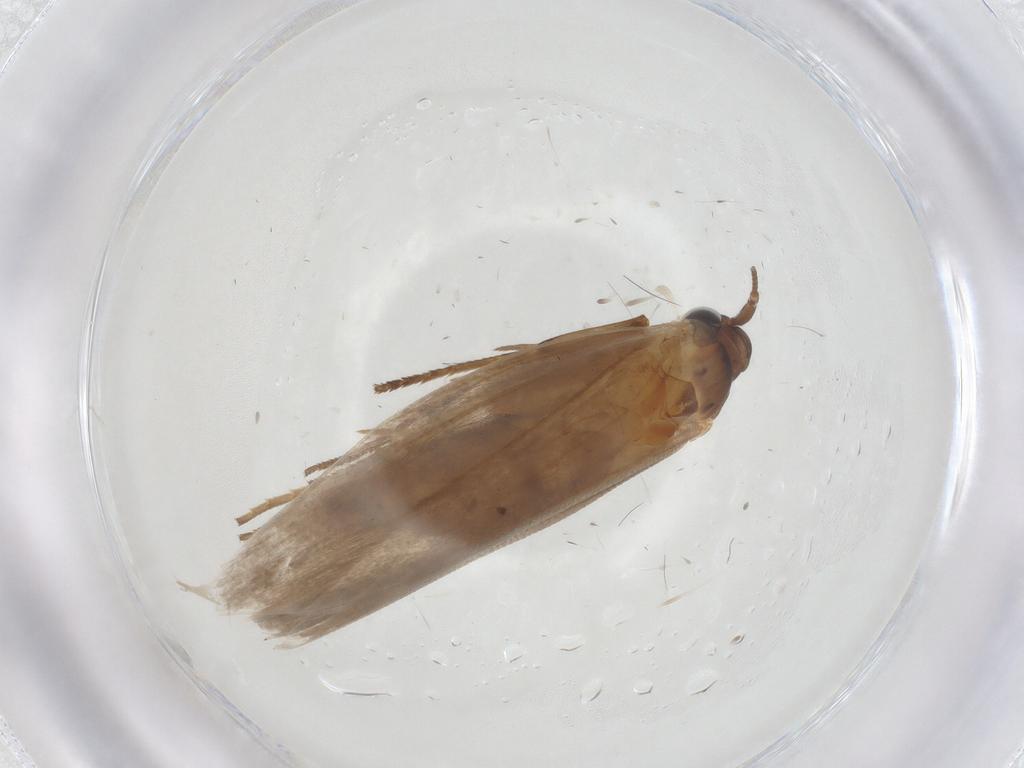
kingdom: Animalia
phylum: Arthropoda
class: Insecta
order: Lepidoptera
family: Roeslerstammiidae
